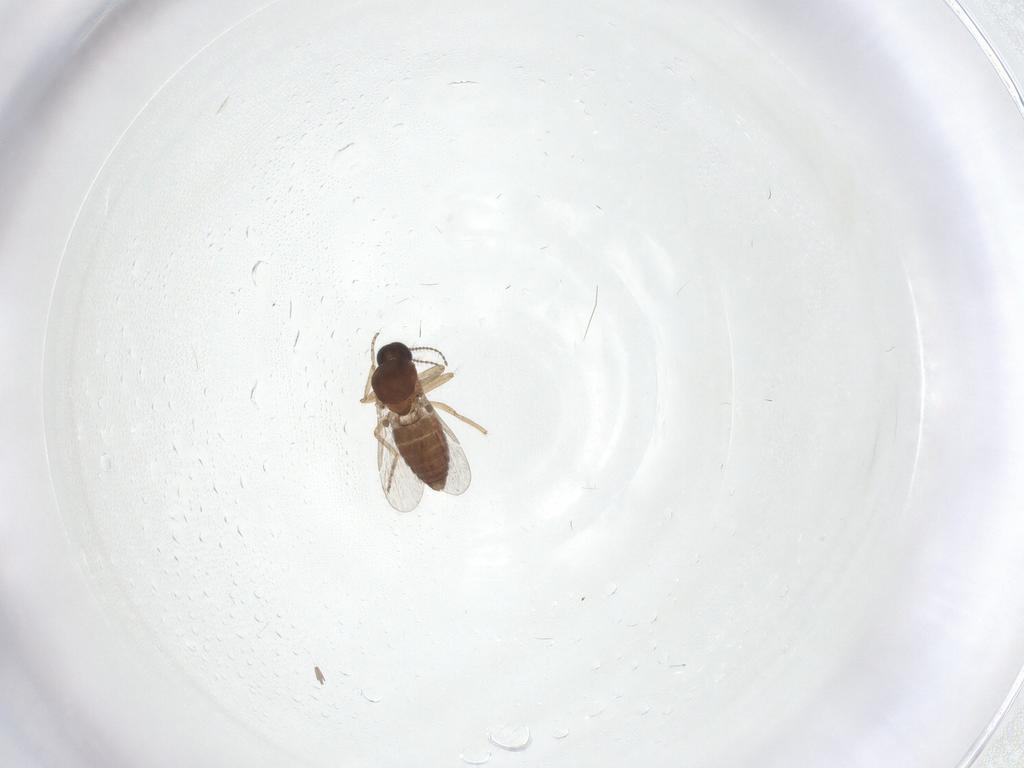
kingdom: Animalia
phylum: Arthropoda
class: Insecta
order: Diptera
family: Ceratopogonidae
